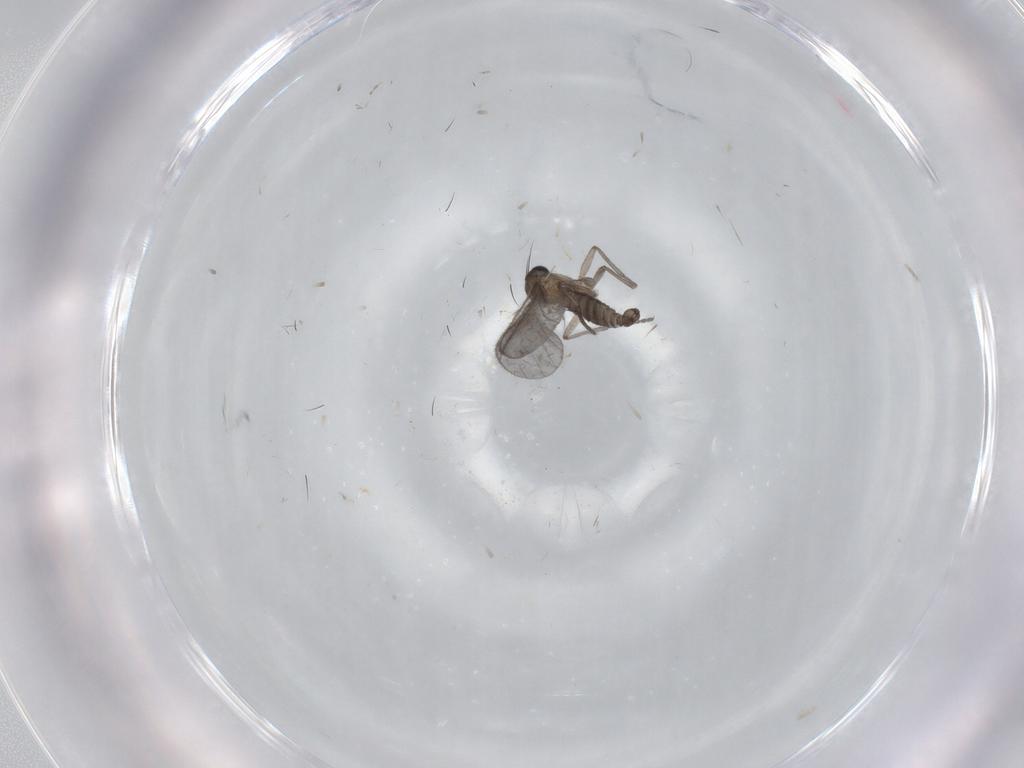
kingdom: Animalia
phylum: Arthropoda
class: Insecta
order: Diptera
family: Sciaridae
